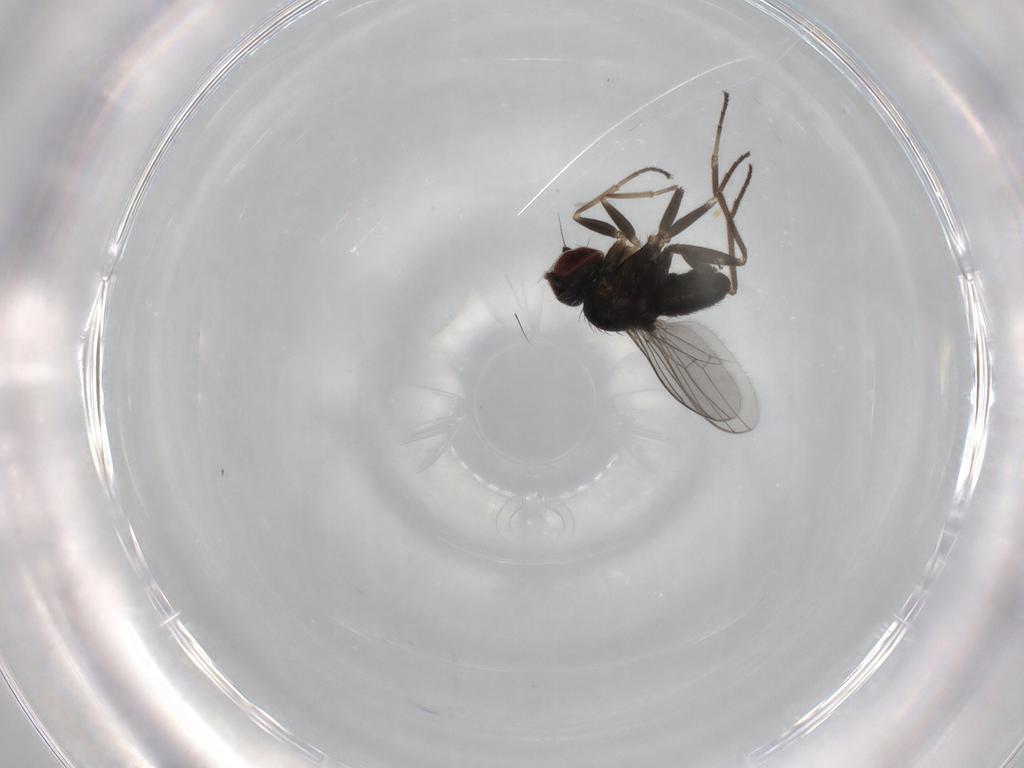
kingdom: Animalia
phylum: Arthropoda
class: Insecta
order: Diptera
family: Dolichopodidae
